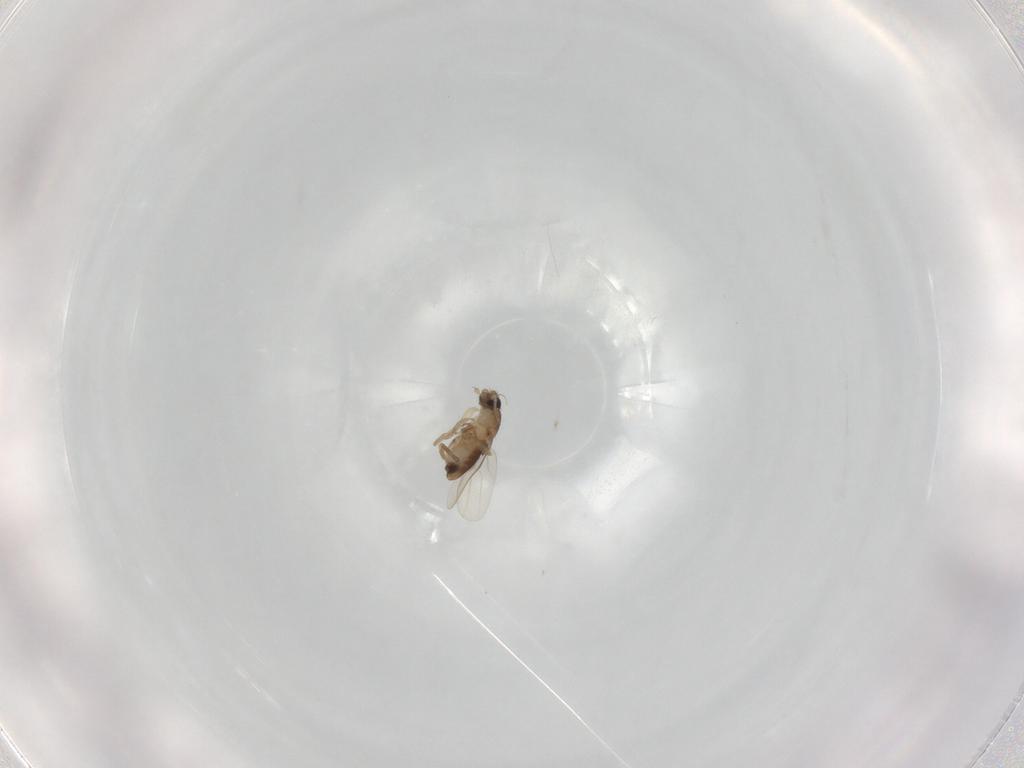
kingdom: Animalia
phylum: Arthropoda
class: Insecta
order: Diptera
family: Phoridae
